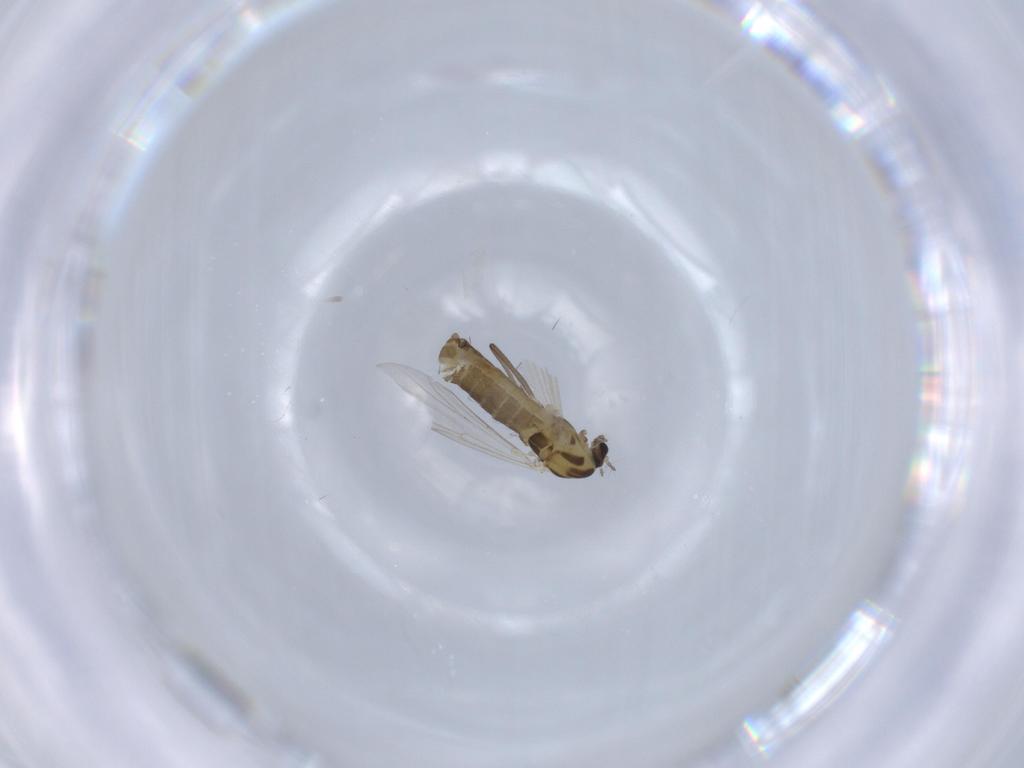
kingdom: Animalia
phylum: Arthropoda
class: Insecta
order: Diptera
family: Chironomidae
